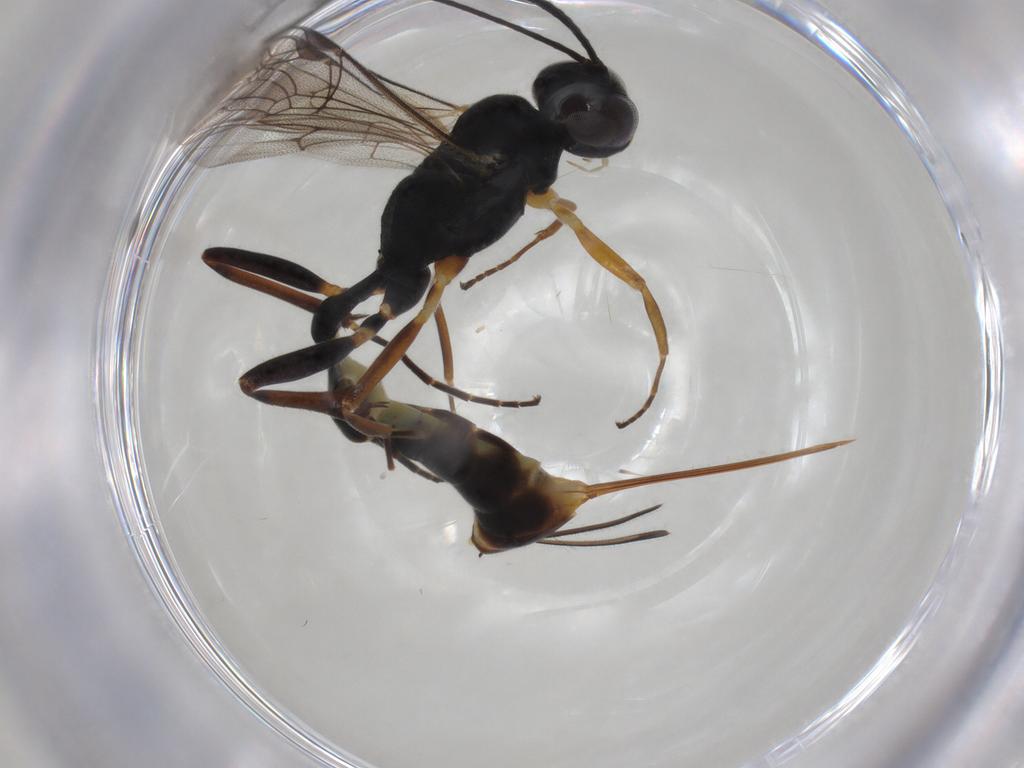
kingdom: Animalia
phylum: Arthropoda
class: Insecta
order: Hymenoptera
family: Ichneumonidae
